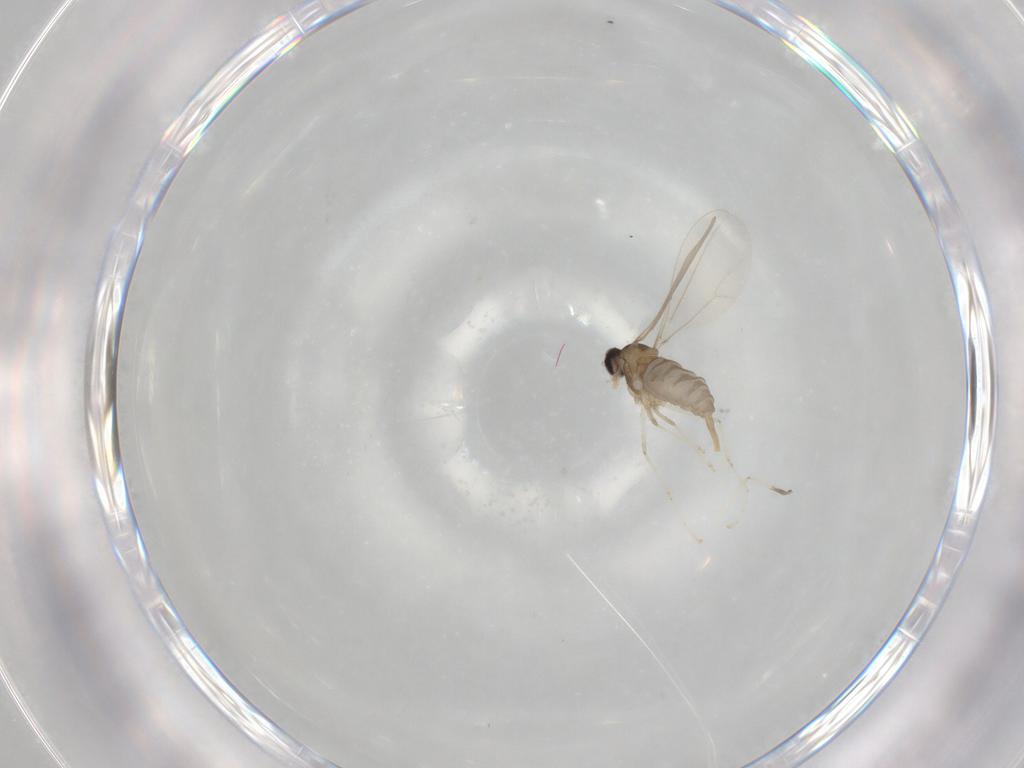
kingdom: Animalia
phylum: Arthropoda
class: Insecta
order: Diptera
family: Cecidomyiidae
